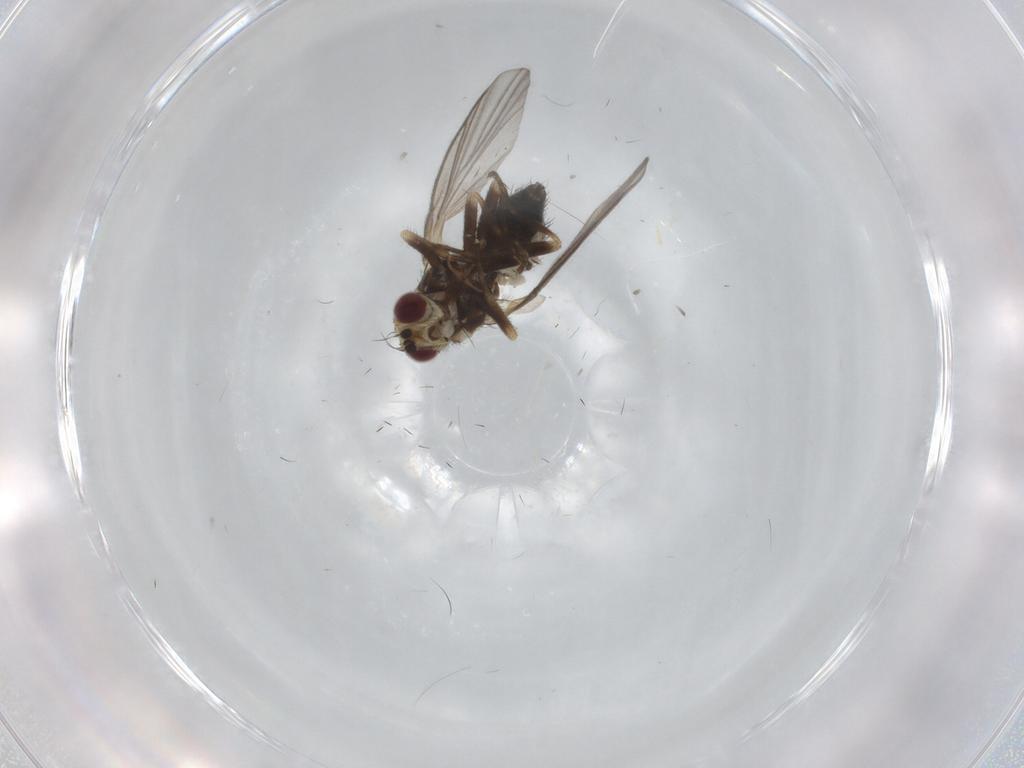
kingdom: Animalia
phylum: Arthropoda
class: Insecta
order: Diptera
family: Agromyzidae
